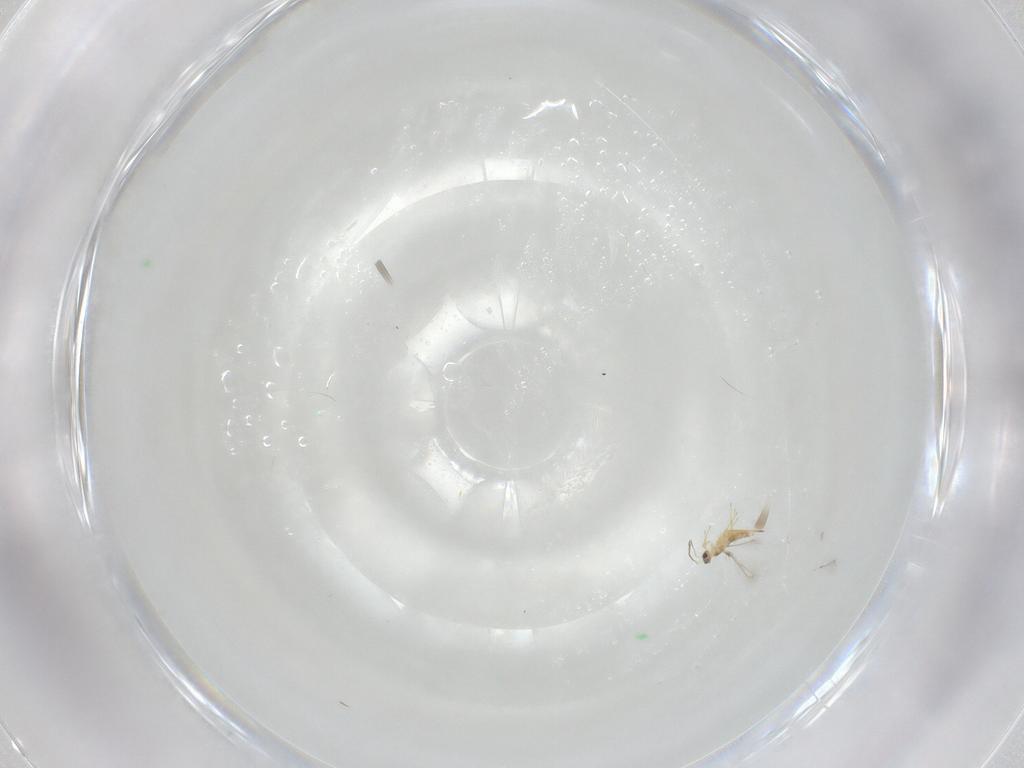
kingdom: Animalia
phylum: Arthropoda
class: Insecta
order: Hymenoptera
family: Mymaridae
